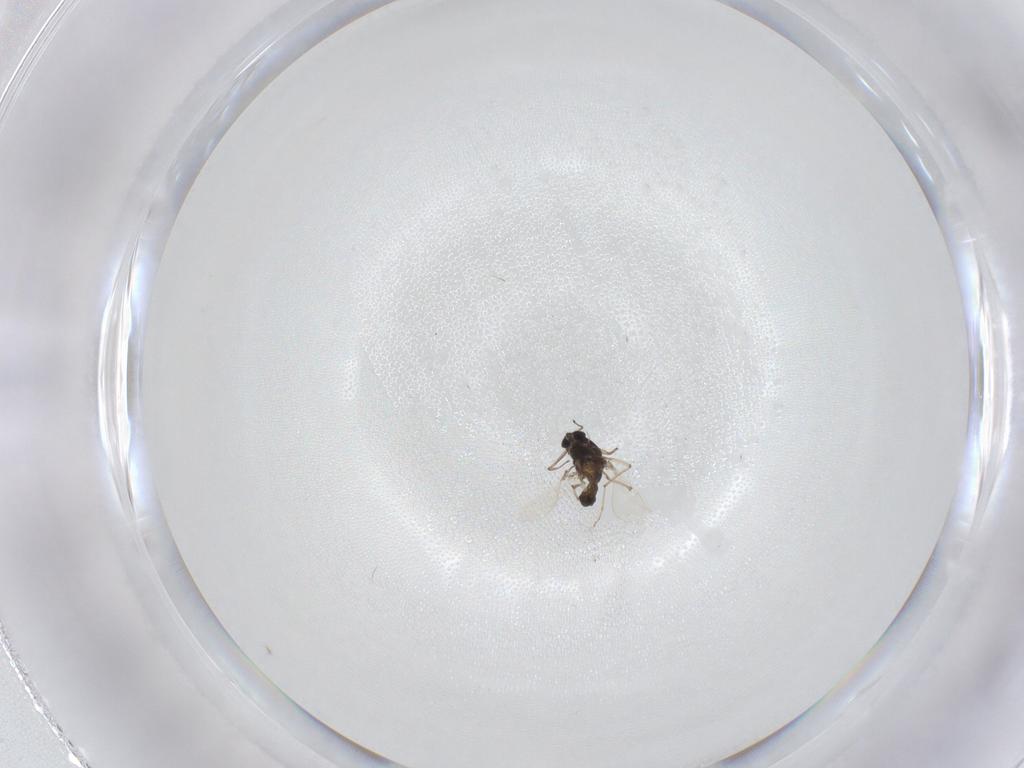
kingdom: Animalia
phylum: Arthropoda
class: Insecta
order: Diptera
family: Chironomidae
